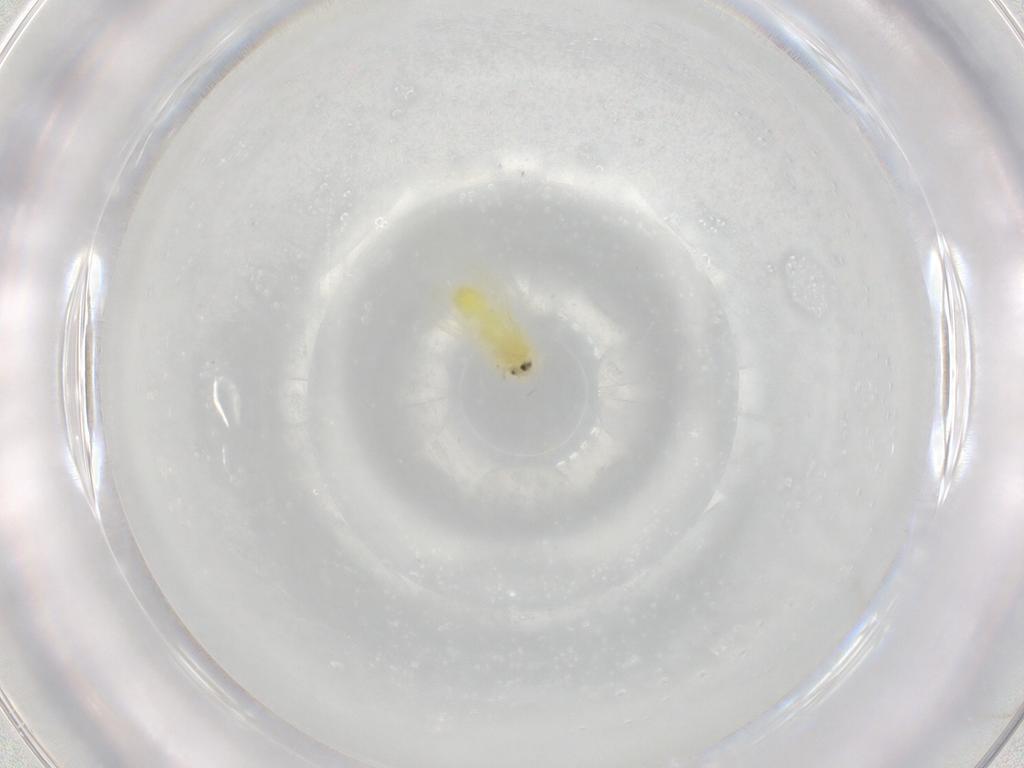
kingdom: Animalia
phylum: Arthropoda
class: Insecta
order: Hemiptera
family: Aleyrodidae
